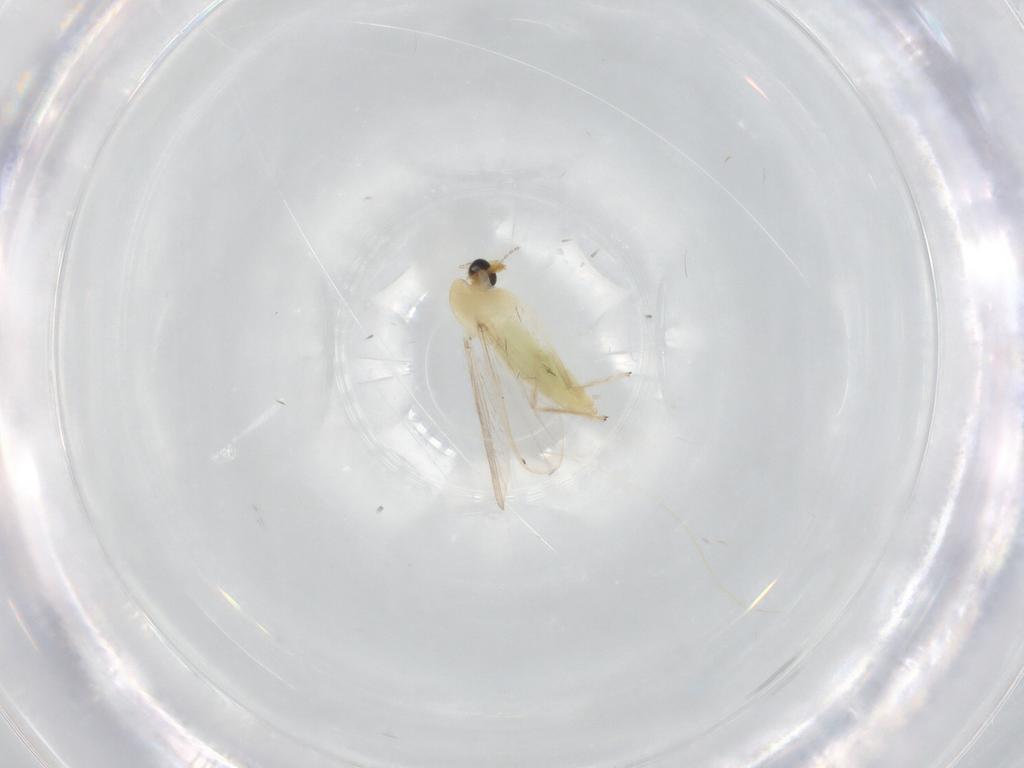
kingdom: Animalia
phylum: Arthropoda
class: Insecta
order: Diptera
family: Chironomidae
